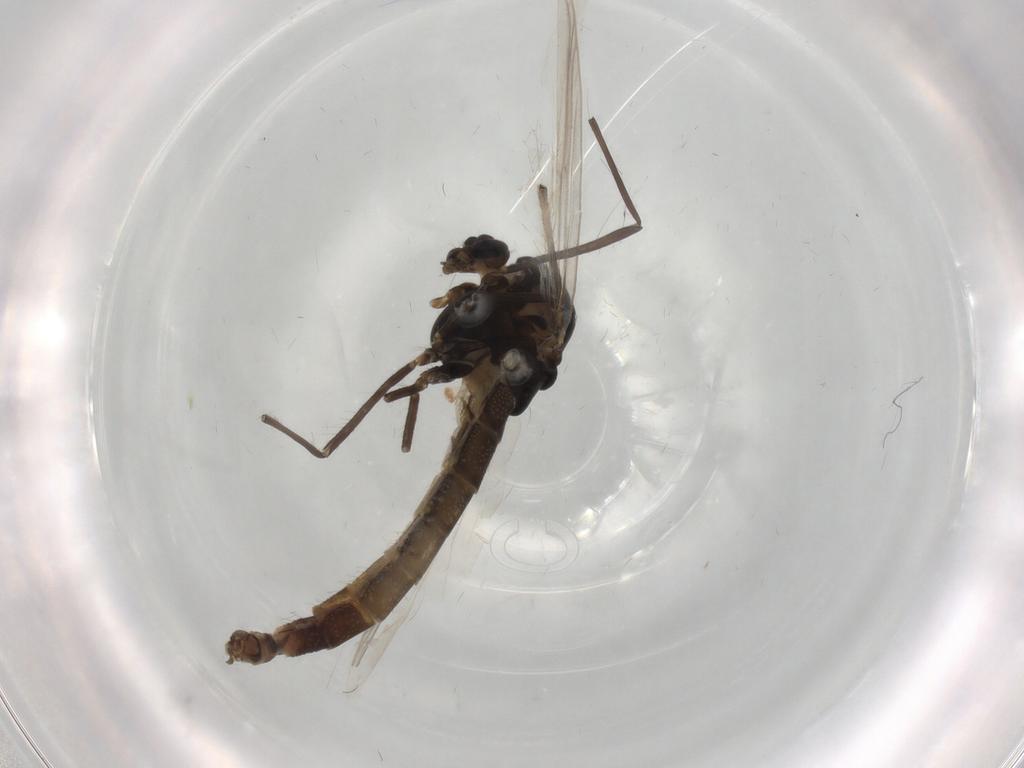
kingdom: Animalia
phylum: Arthropoda
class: Insecta
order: Diptera
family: Chironomidae
